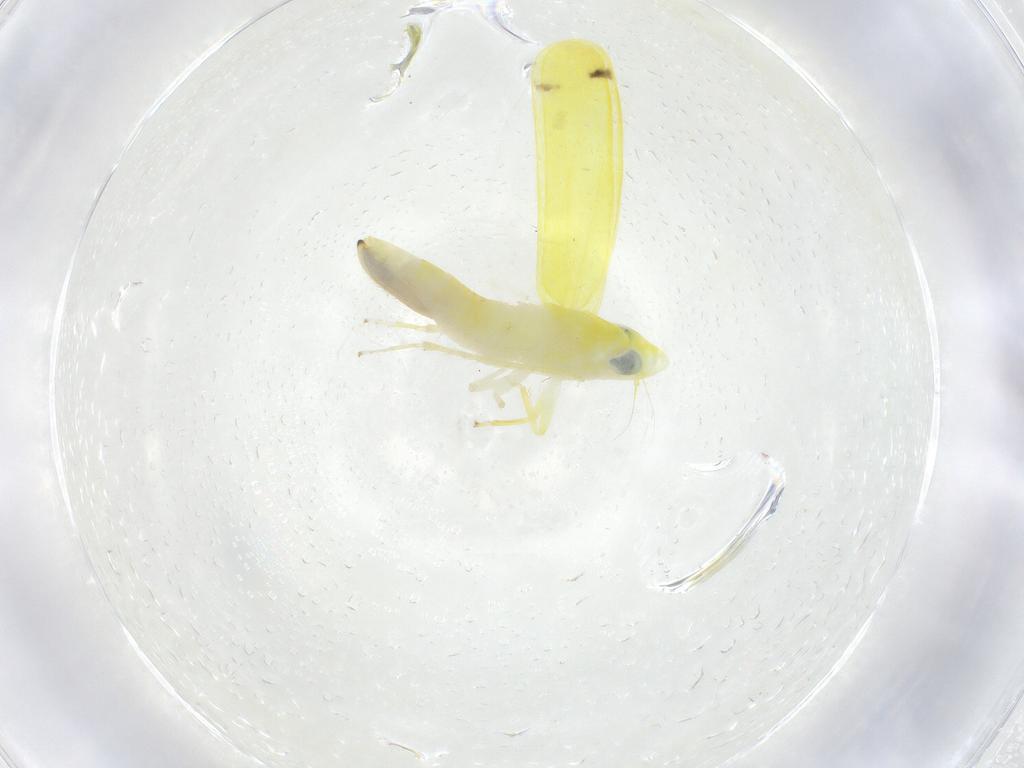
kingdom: Animalia
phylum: Arthropoda
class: Insecta
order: Hemiptera
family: Cicadellidae
